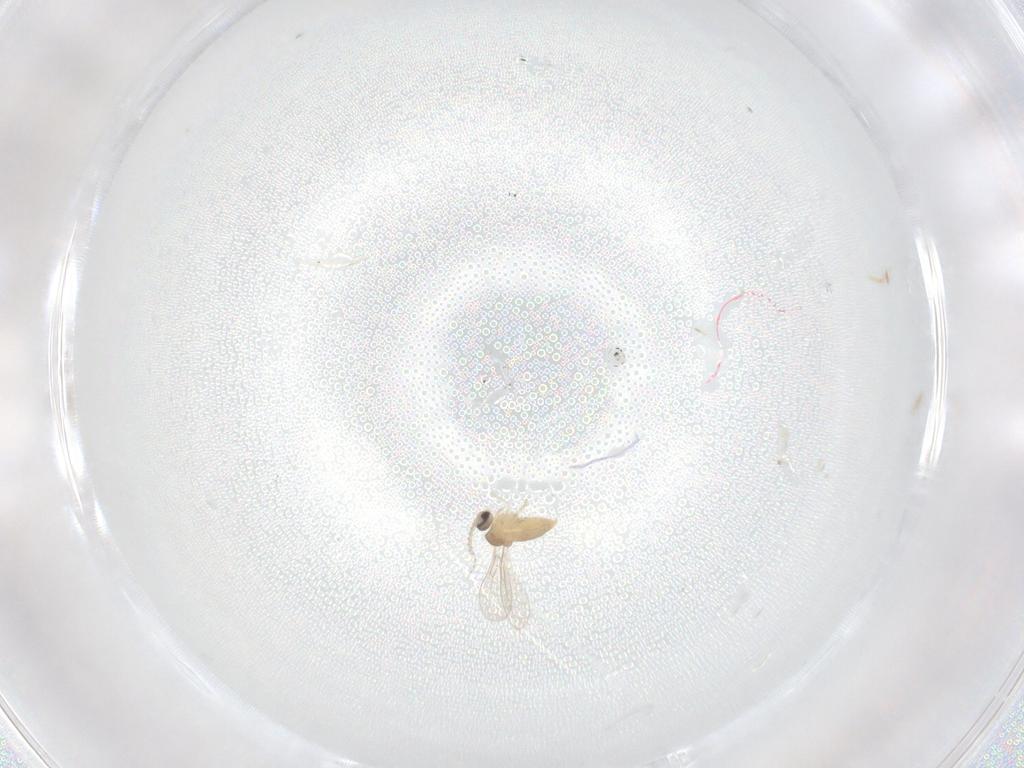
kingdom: Animalia
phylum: Arthropoda
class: Insecta
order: Diptera
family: Cecidomyiidae
